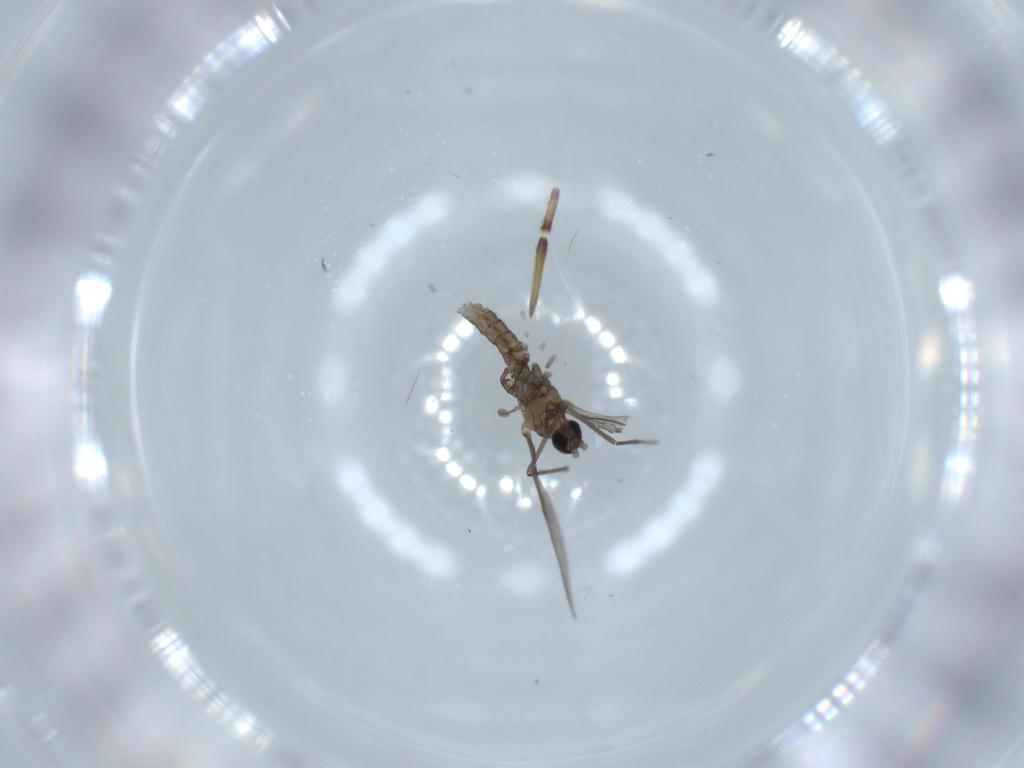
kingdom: Animalia
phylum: Arthropoda
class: Insecta
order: Diptera
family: Cecidomyiidae
